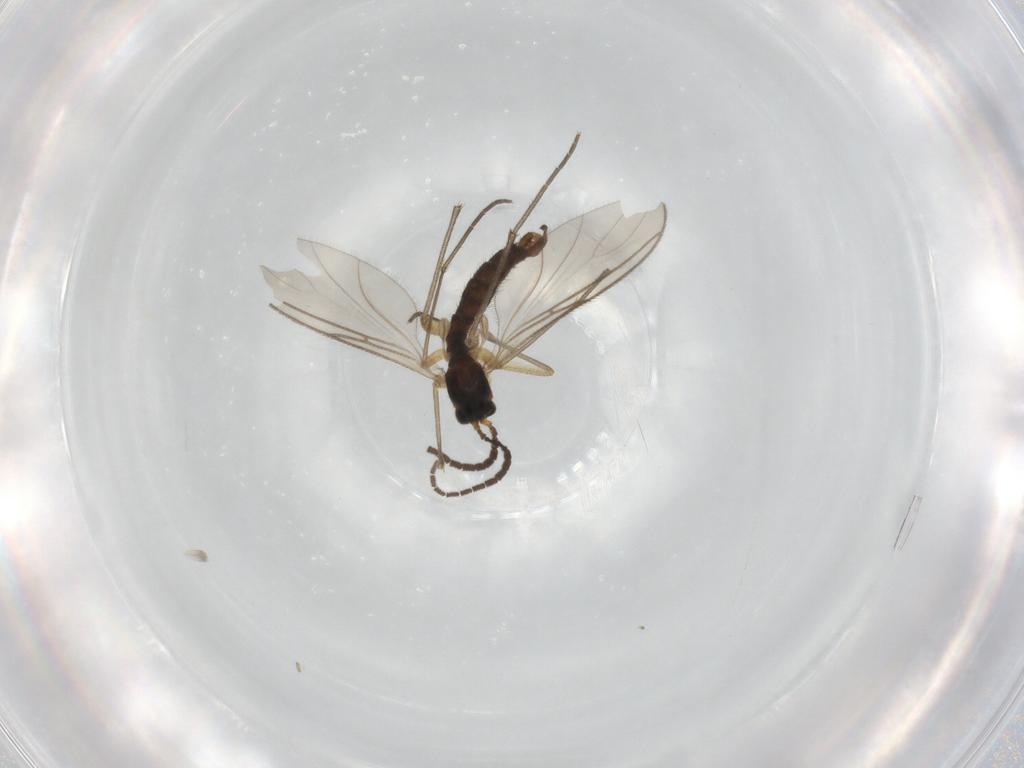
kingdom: Animalia
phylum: Arthropoda
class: Insecta
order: Diptera
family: Sciaridae
